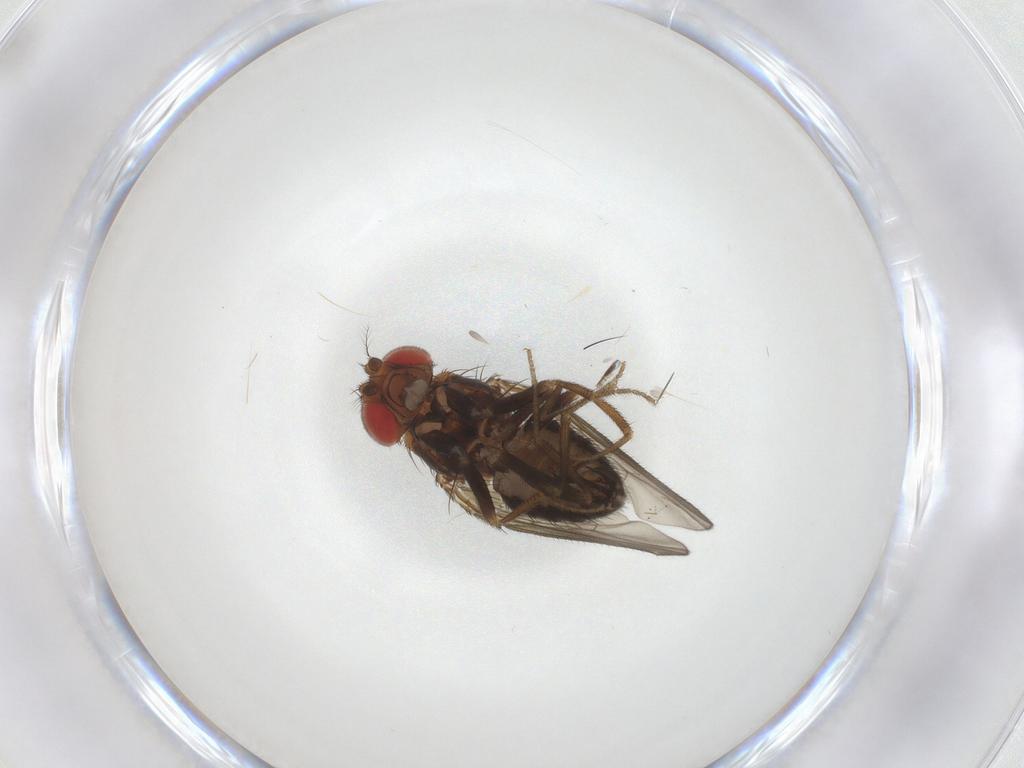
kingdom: Animalia
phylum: Arthropoda
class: Insecta
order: Diptera
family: Drosophilidae
